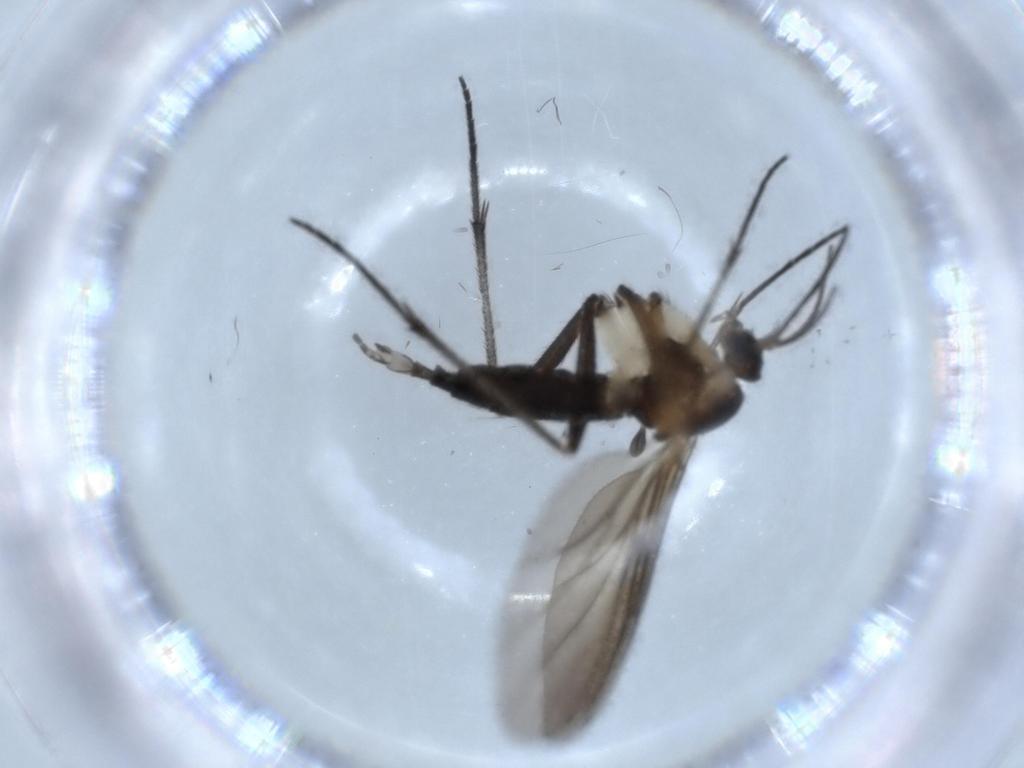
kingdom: Animalia
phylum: Arthropoda
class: Insecta
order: Diptera
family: Sciaridae
